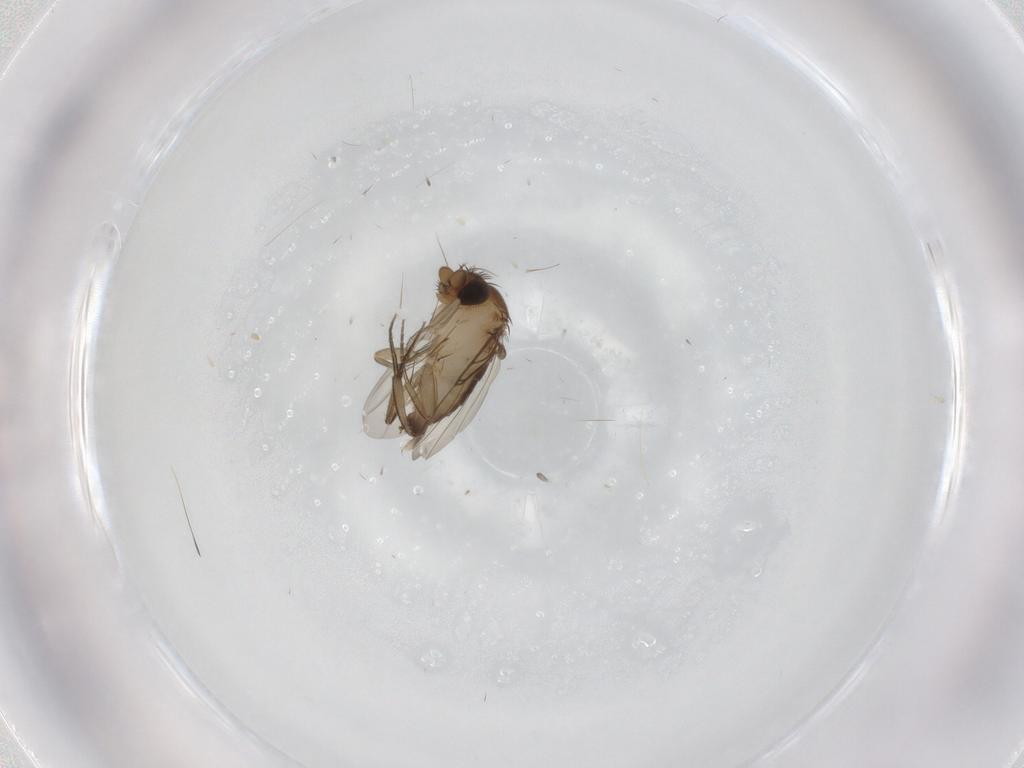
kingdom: Animalia
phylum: Arthropoda
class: Insecta
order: Diptera
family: Phoridae
